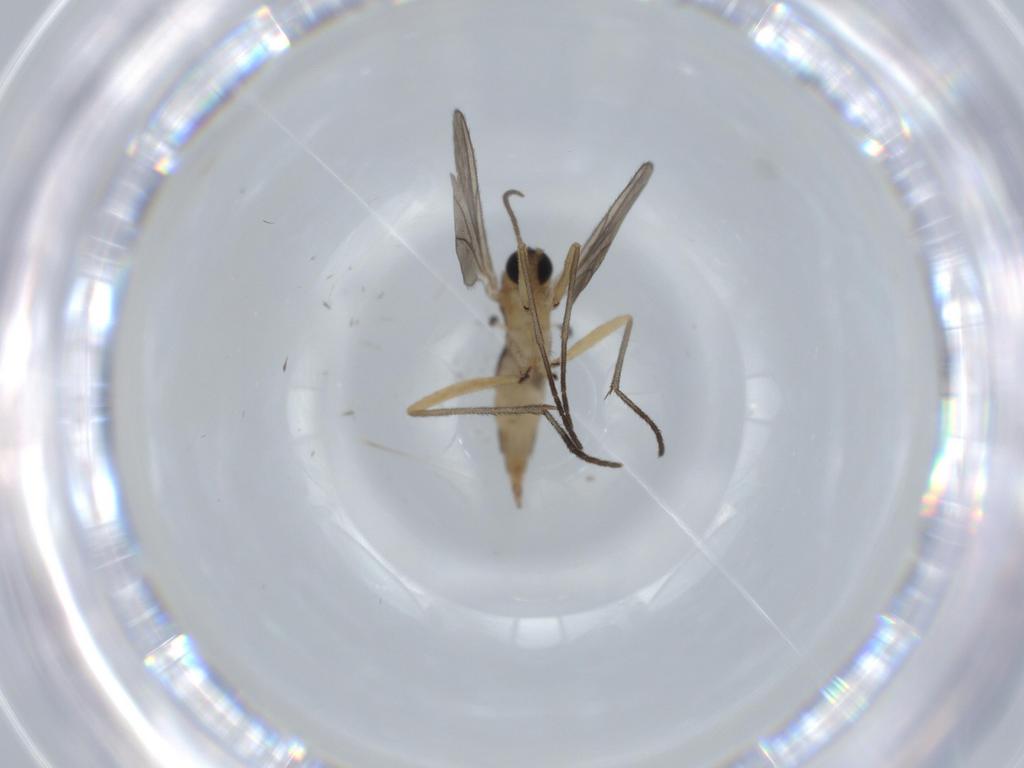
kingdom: Animalia
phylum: Arthropoda
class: Insecta
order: Diptera
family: Sciaridae
